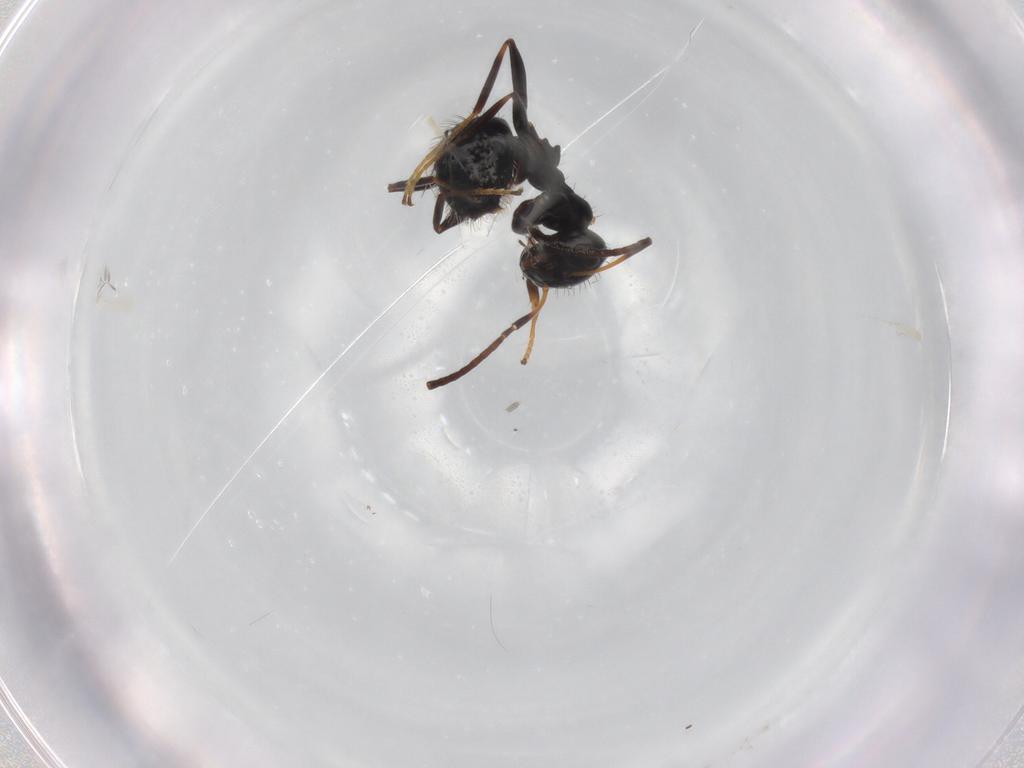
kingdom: Animalia
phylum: Arthropoda
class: Insecta
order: Hymenoptera
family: Formicidae
